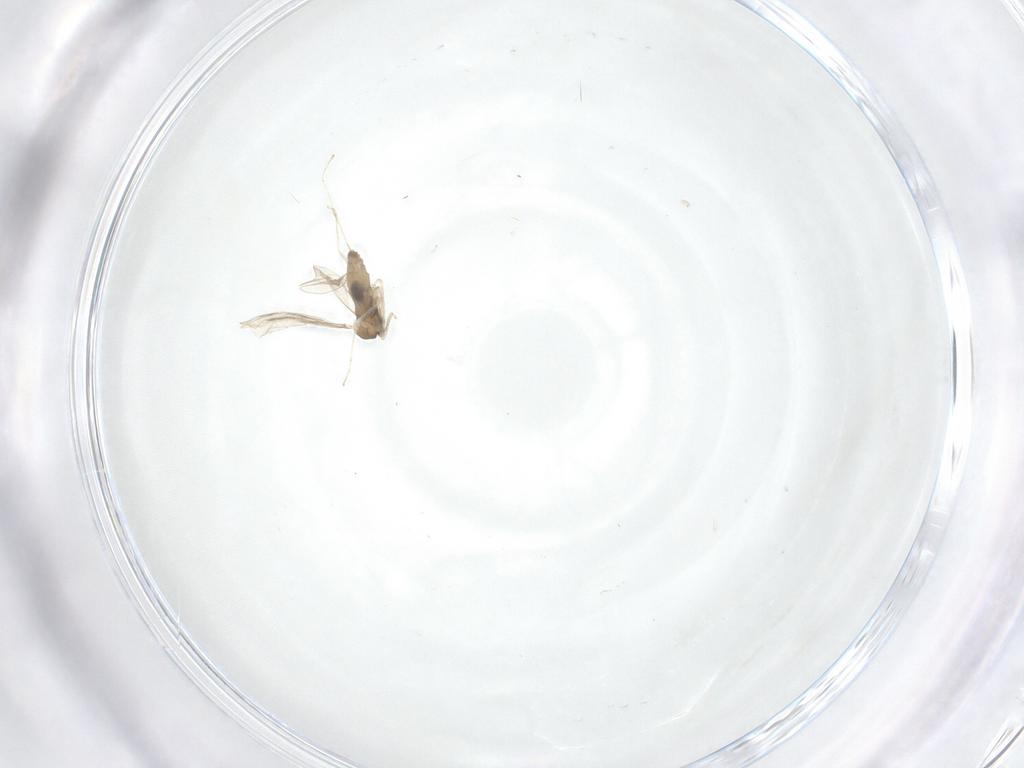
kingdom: Animalia
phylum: Arthropoda
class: Insecta
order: Diptera
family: Cecidomyiidae
